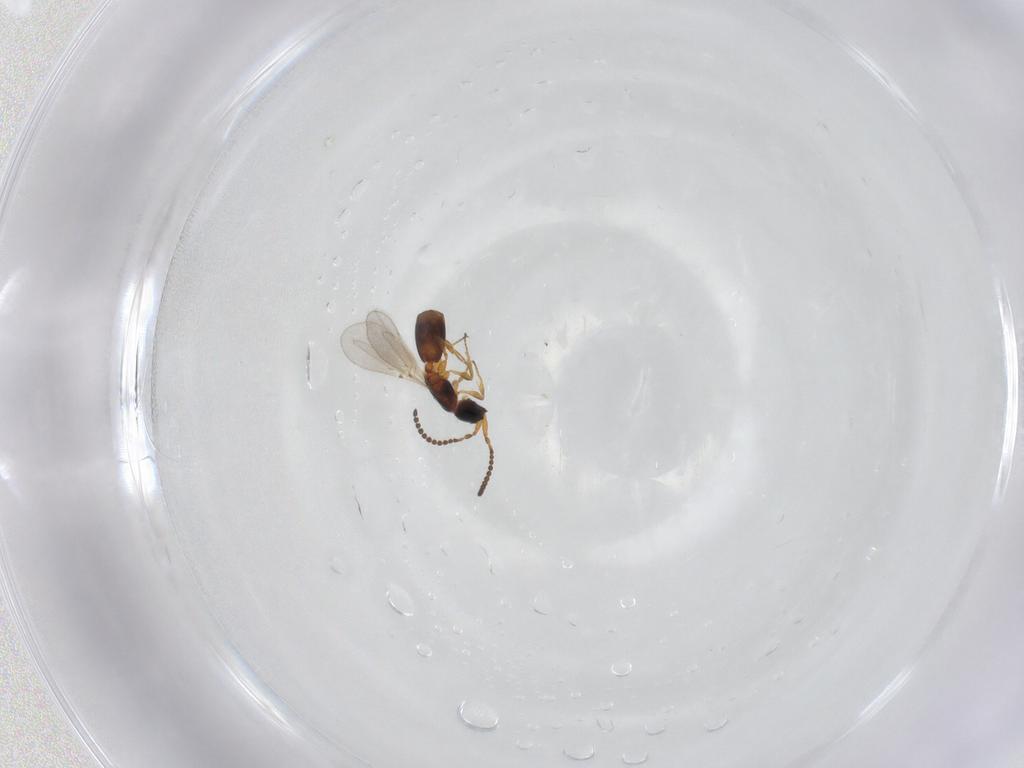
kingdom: Animalia
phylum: Arthropoda
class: Insecta
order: Hymenoptera
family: Diapriidae
